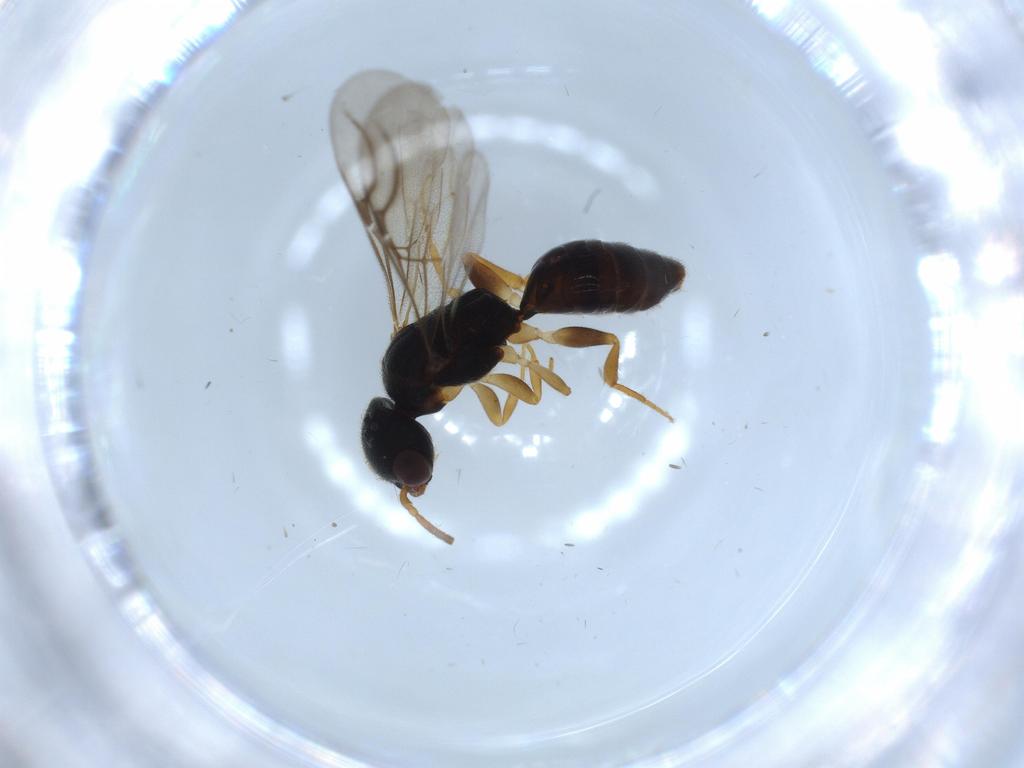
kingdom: Animalia
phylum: Arthropoda
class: Insecta
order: Hymenoptera
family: Bethylidae
